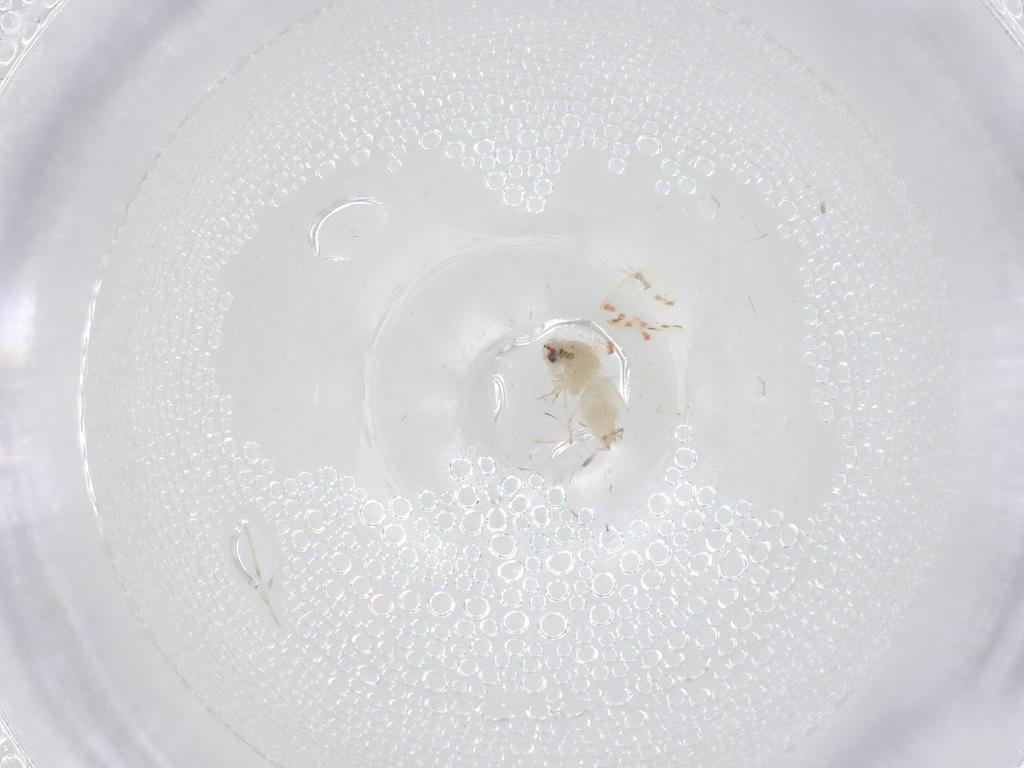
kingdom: Animalia
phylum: Arthropoda
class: Insecta
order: Hemiptera
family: Aleyrodidae
